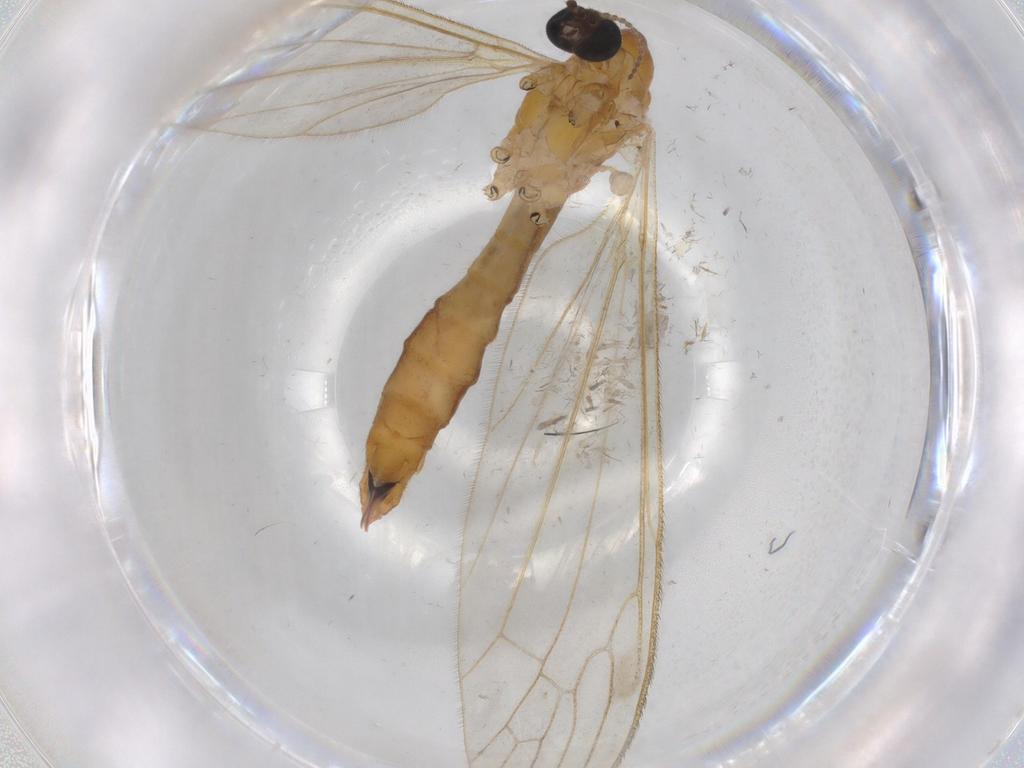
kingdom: Animalia
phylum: Arthropoda
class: Insecta
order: Diptera
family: Limoniidae
